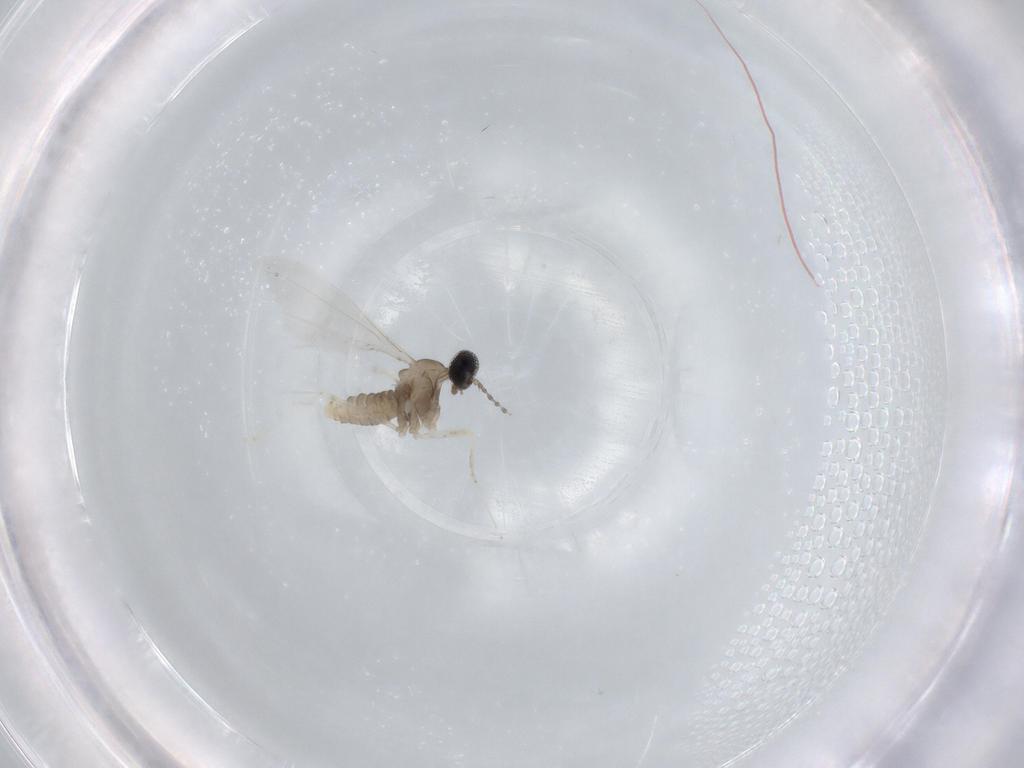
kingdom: Animalia
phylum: Arthropoda
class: Insecta
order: Diptera
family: Cecidomyiidae
